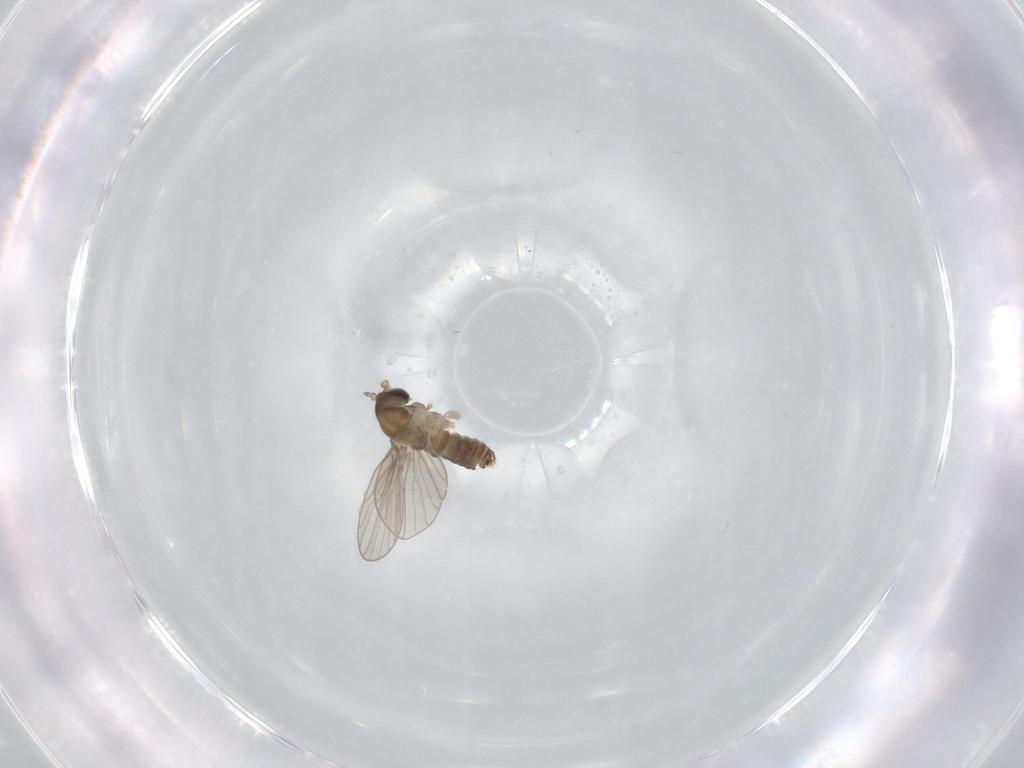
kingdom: Animalia
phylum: Arthropoda
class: Insecta
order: Diptera
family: Psychodidae
